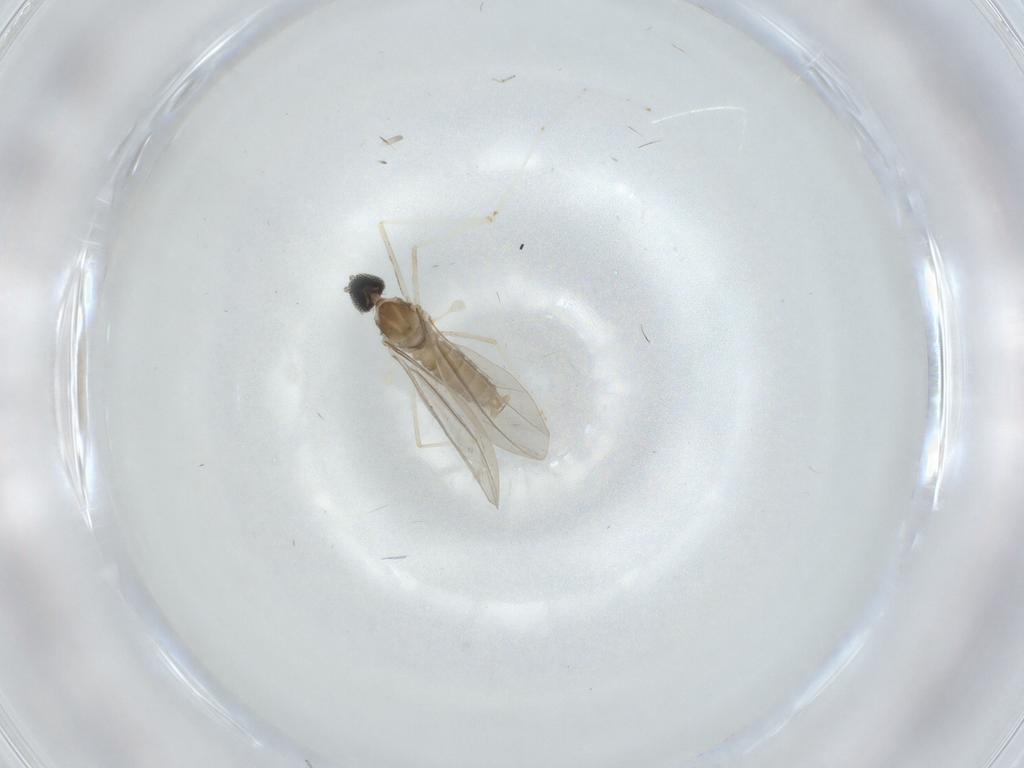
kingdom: Animalia
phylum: Arthropoda
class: Insecta
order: Diptera
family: Cecidomyiidae
